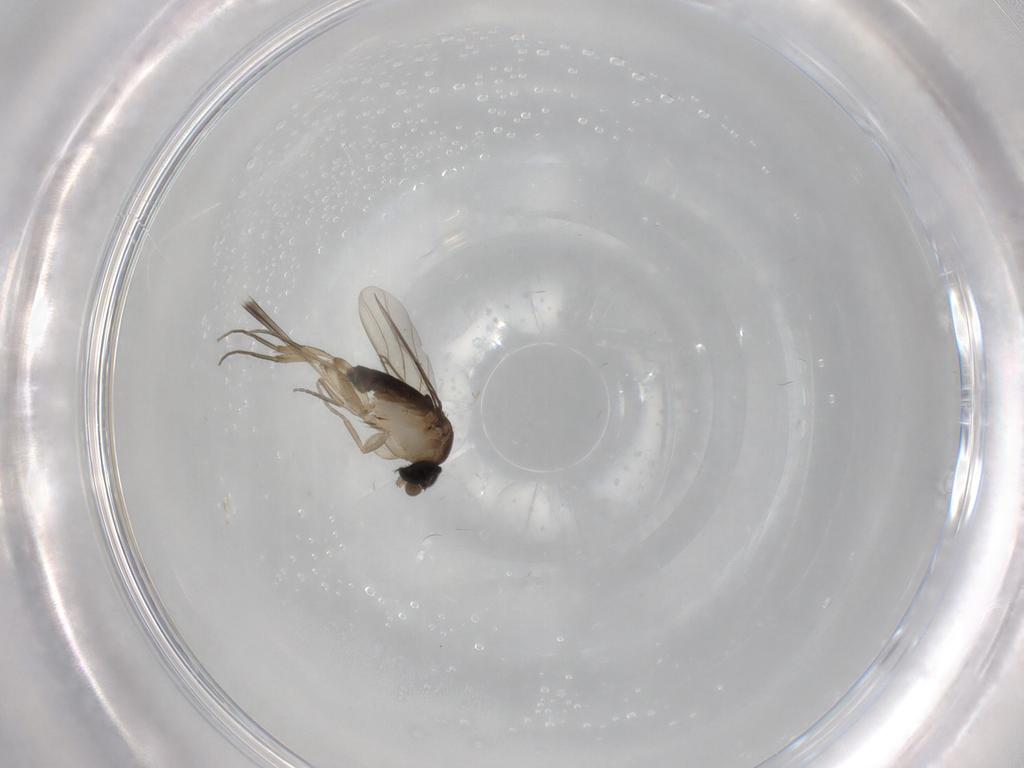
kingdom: Animalia
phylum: Arthropoda
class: Insecta
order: Diptera
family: Phoridae
